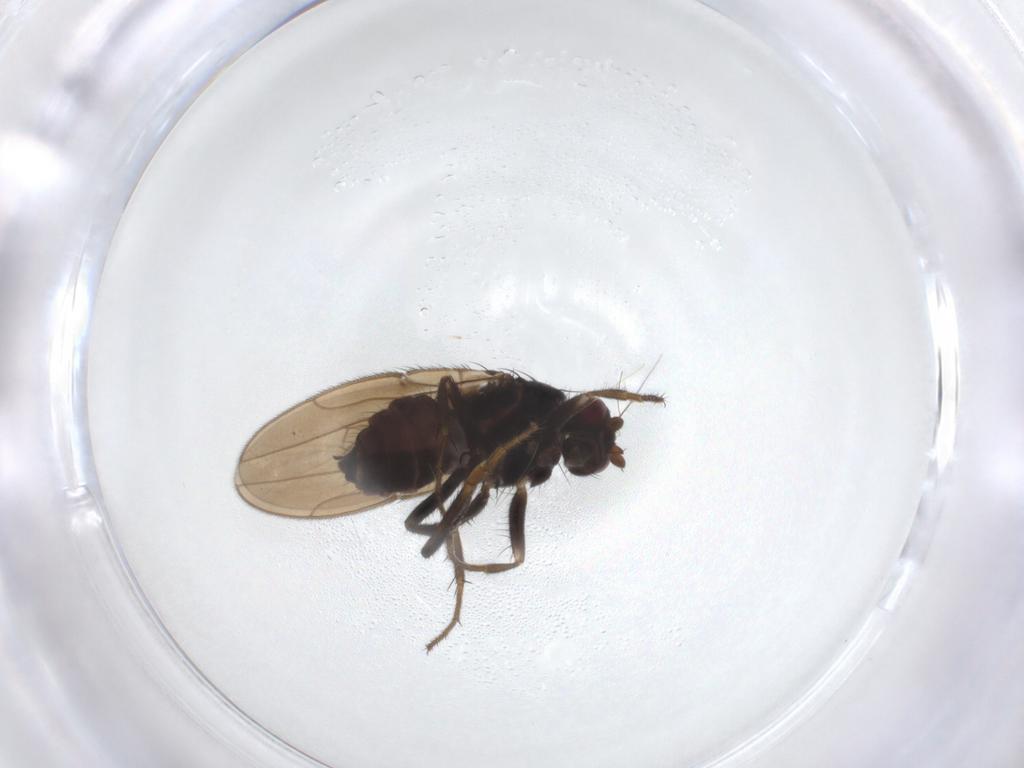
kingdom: Animalia
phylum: Arthropoda
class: Insecta
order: Diptera
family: Sphaeroceridae
